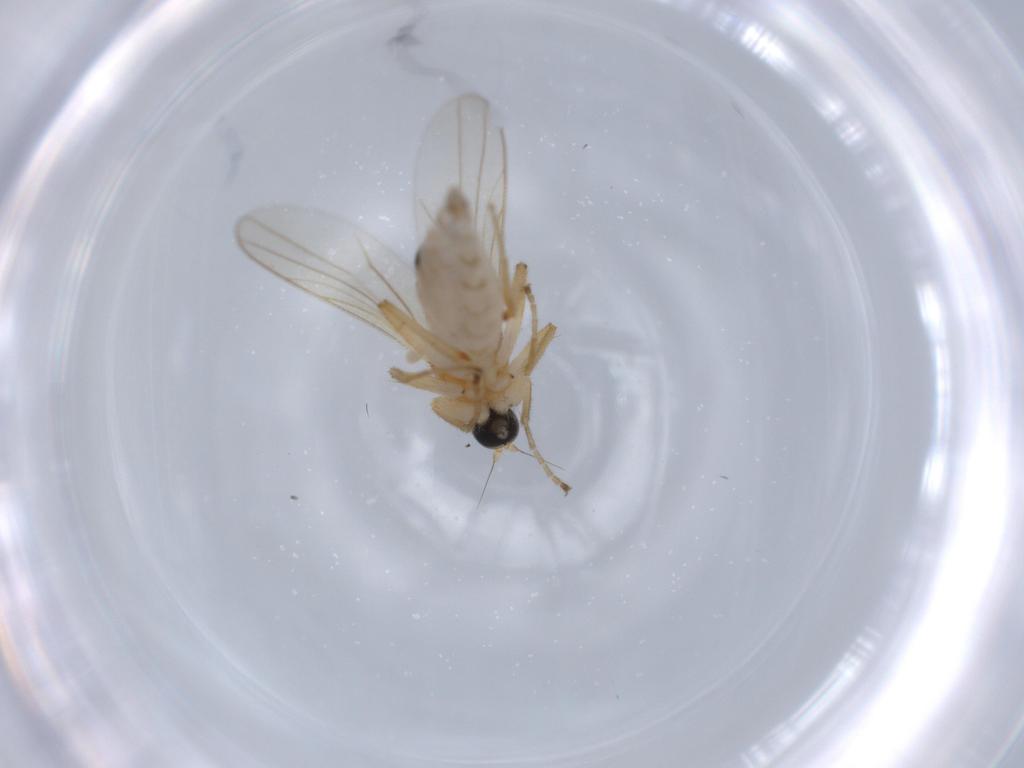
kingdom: Animalia
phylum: Arthropoda
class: Insecta
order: Diptera
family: Hybotidae
